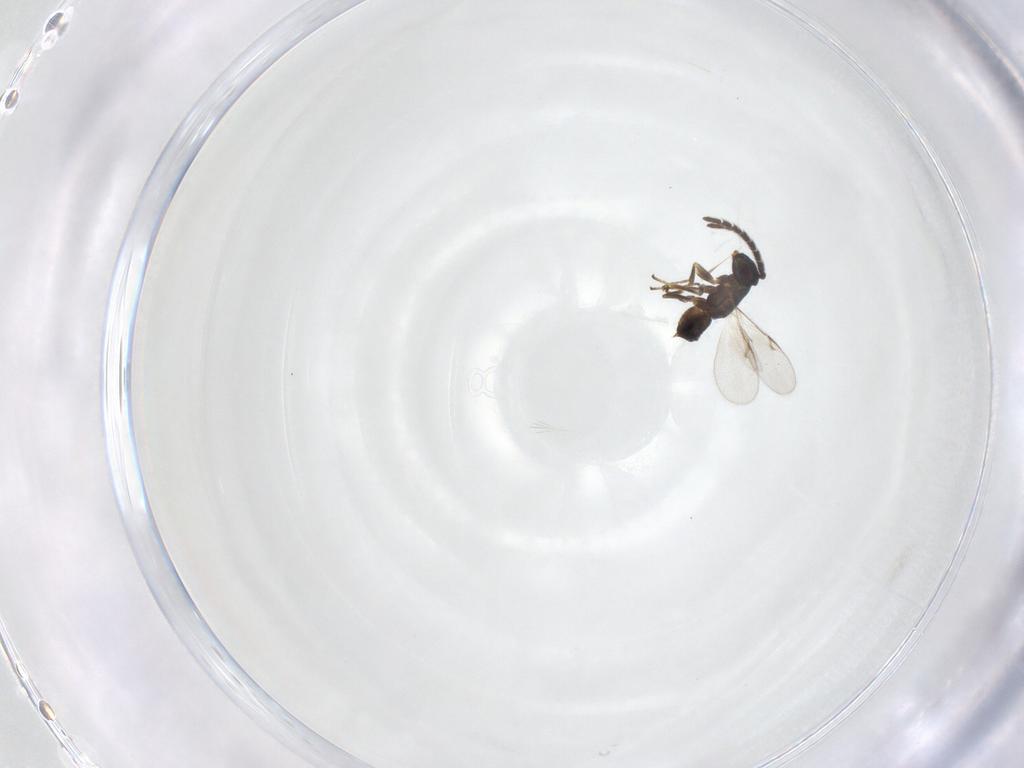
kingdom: Animalia
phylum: Arthropoda
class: Insecta
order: Hymenoptera
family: Encyrtidae
